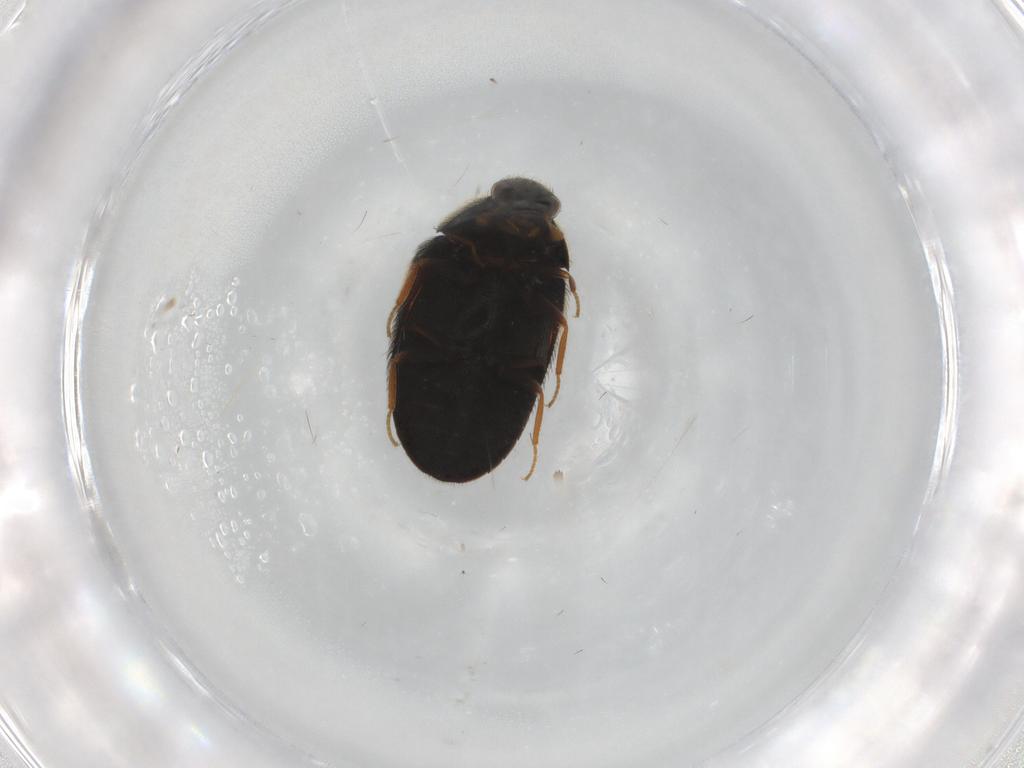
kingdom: Animalia
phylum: Arthropoda
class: Insecta
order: Coleoptera
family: Dermestidae
